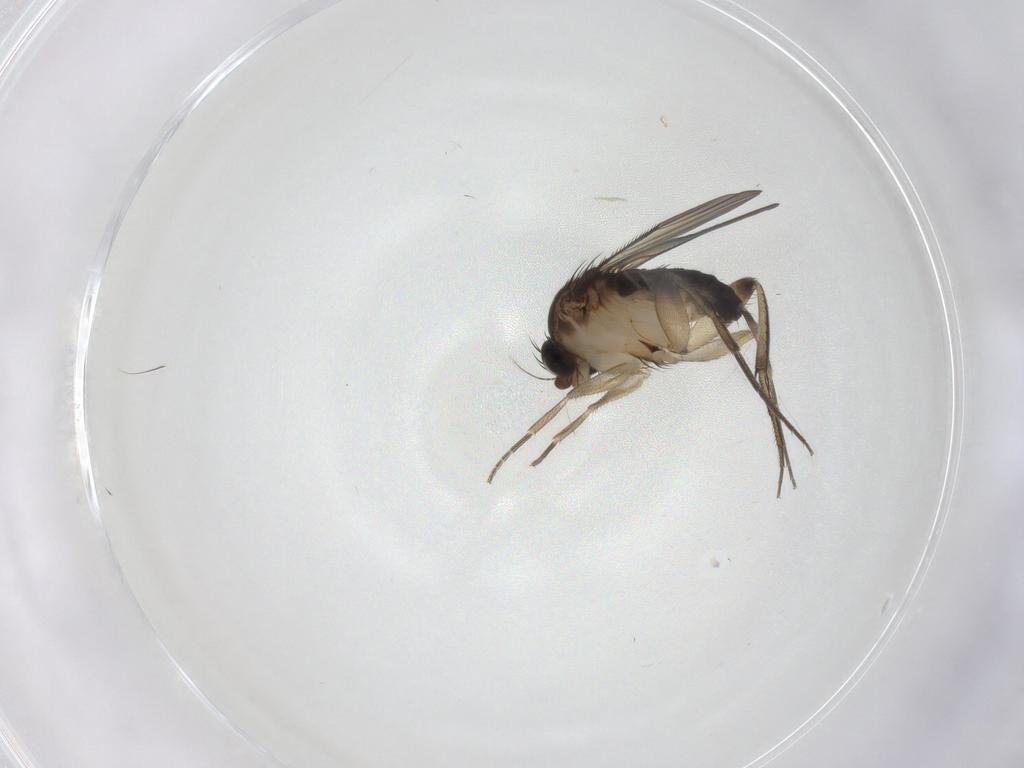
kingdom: Animalia
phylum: Arthropoda
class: Insecta
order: Diptera
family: Phoridae
